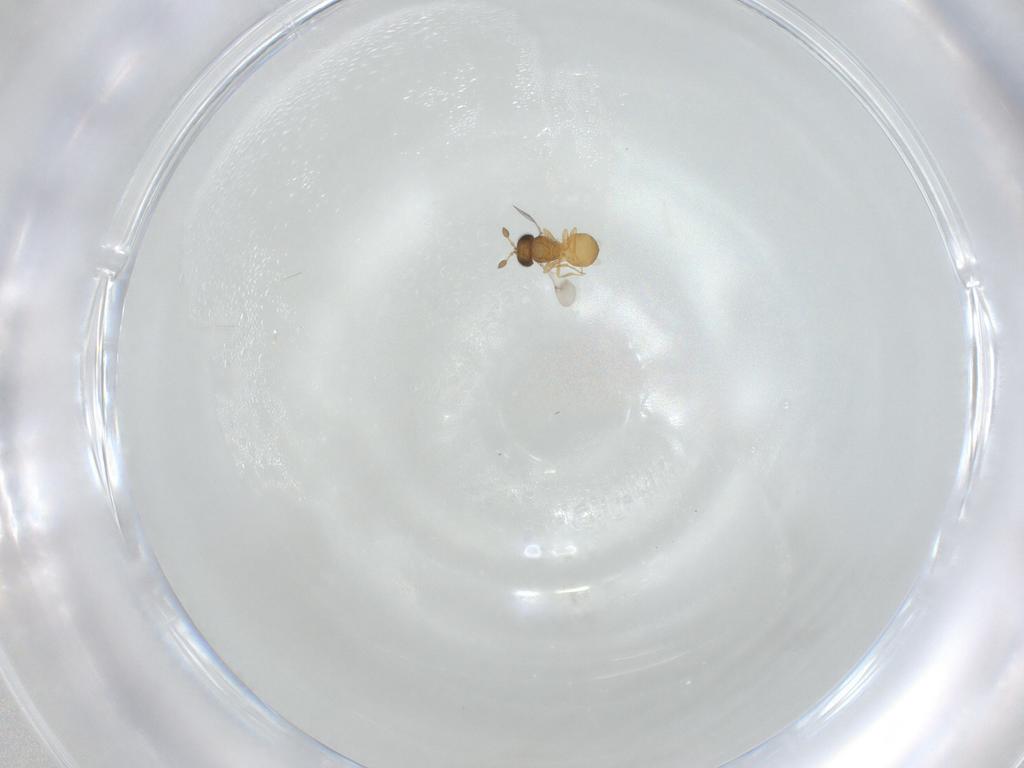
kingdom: Animalia
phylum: Arthropoda
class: Insecta
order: Hymenoptera
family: Scelionidae
